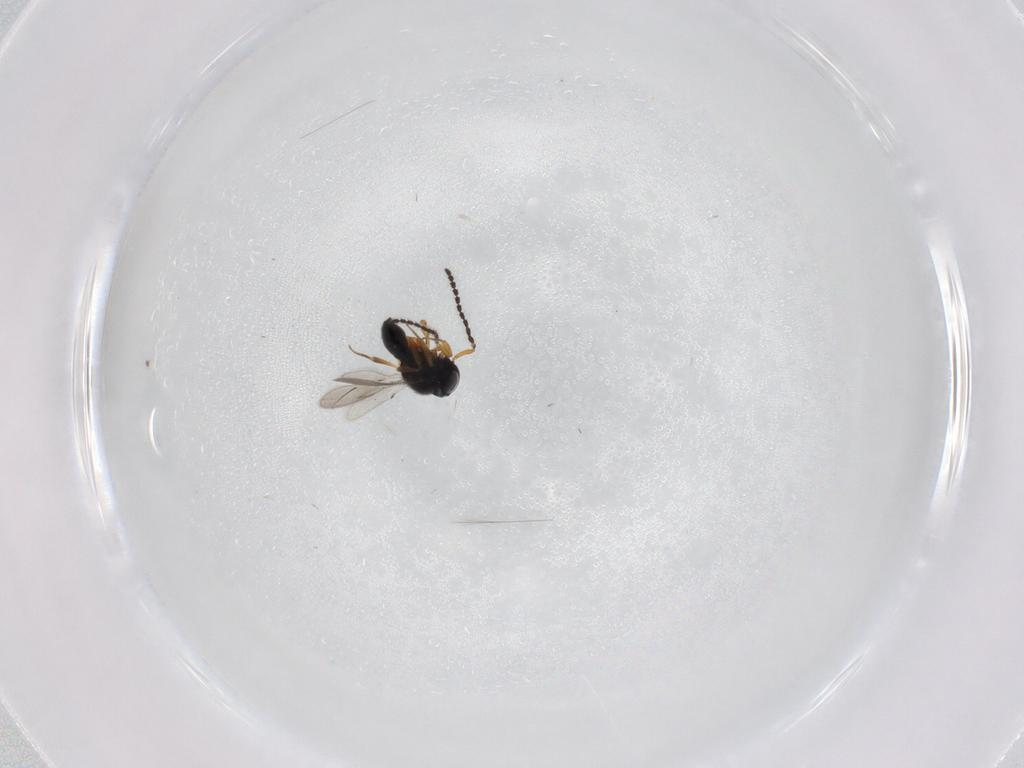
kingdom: Animalia
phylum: Arthropoda
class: Insecta
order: Hymenoptera
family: Scelionidae
